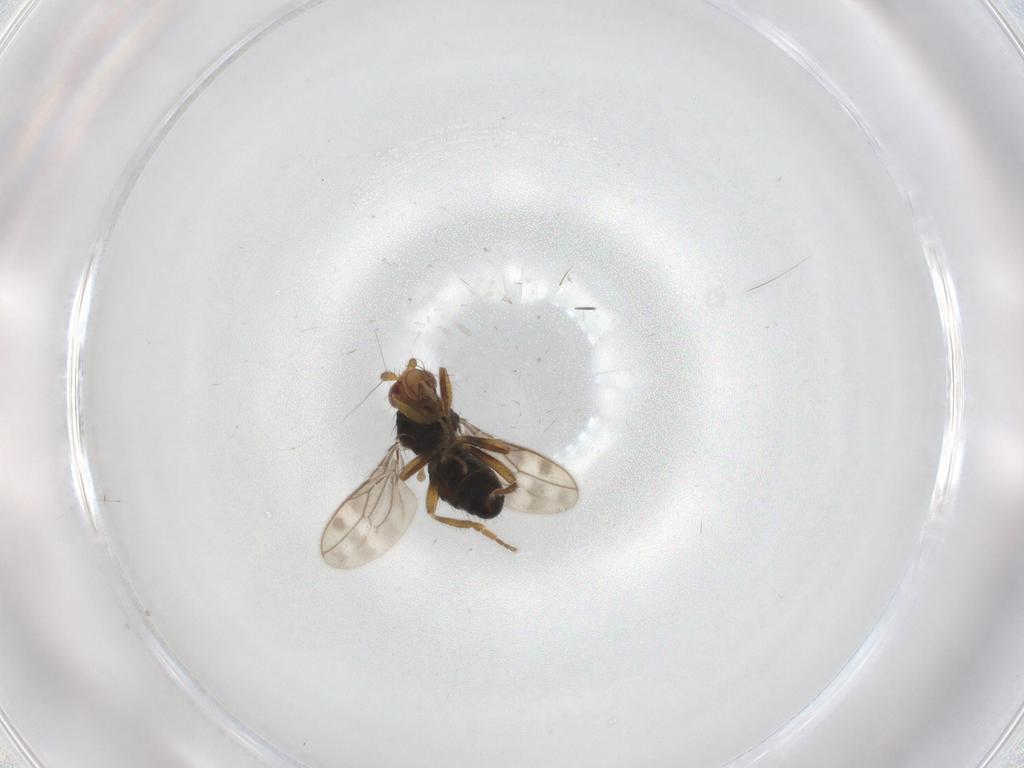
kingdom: Animalia
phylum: Arthropoda
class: Insecta
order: Diptera
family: Sphaeroceridae
